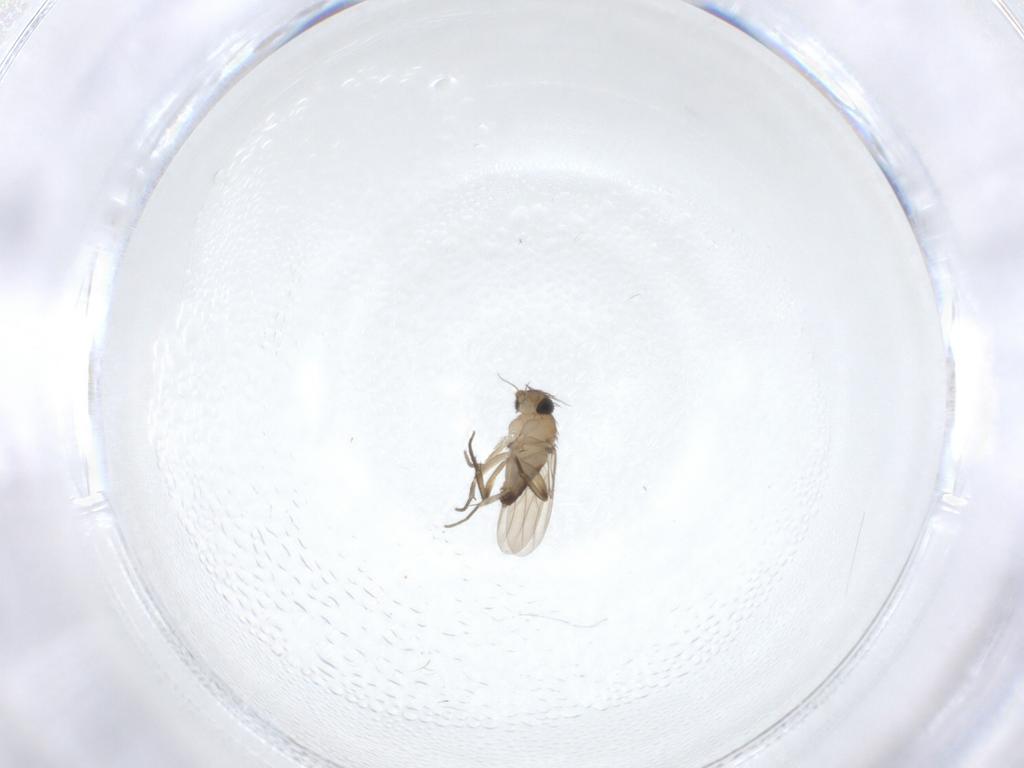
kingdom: Animalia
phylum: Arthropoda
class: Insecta
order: Diptera
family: Phoridae
